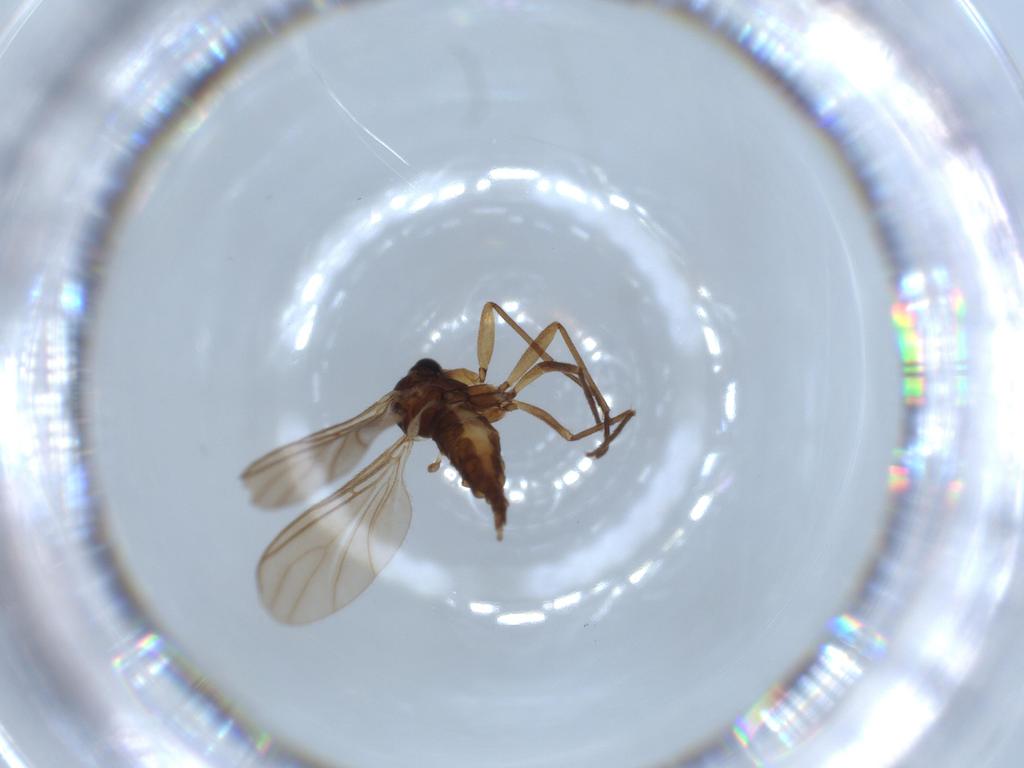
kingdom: Animalia
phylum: Arthropoda
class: Insecta
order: Diptera
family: Sciaridae
